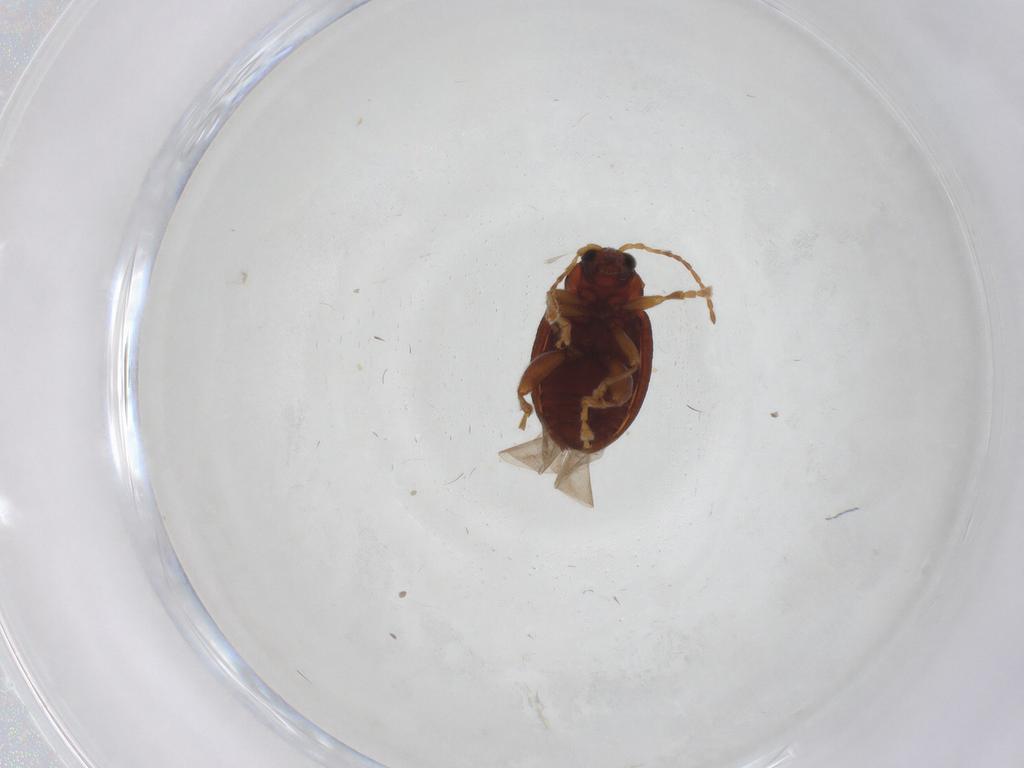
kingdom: Animalia
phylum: Arthropoda
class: Insecta
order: Coleoptera
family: Chrysomelidae
